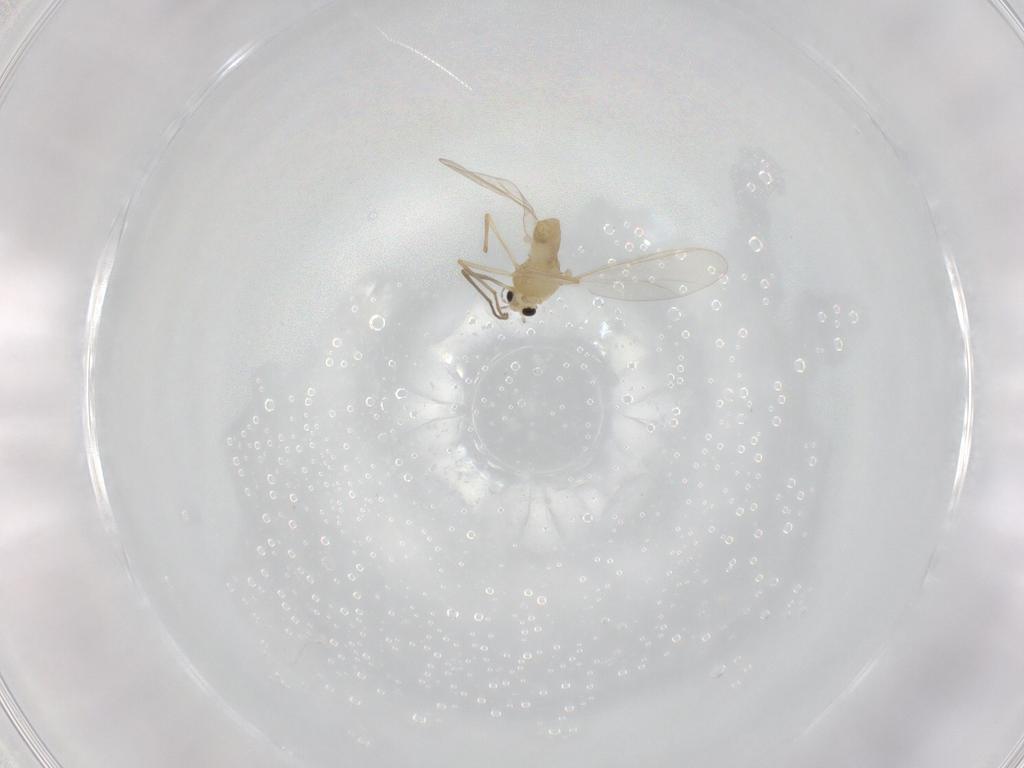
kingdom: Animalia
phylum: Arthropoda
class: Insecta
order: Diptera
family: Chironomidae
